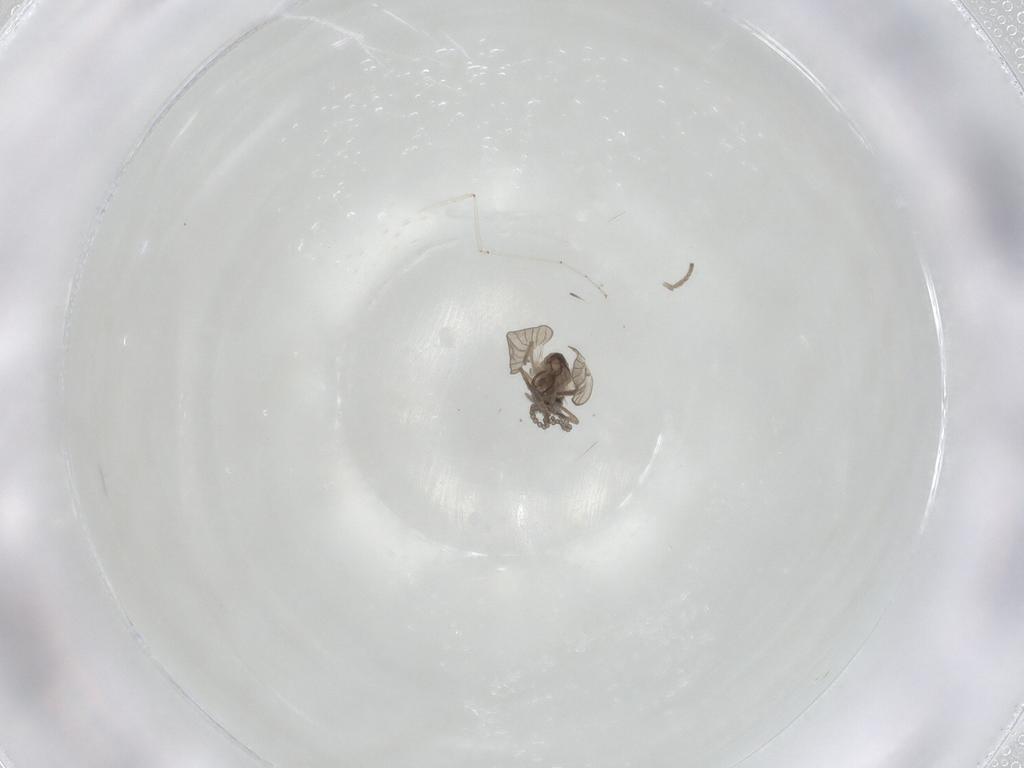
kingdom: Animalia
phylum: Arthropoda
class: Insecta
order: Diptera
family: Psychodidae
